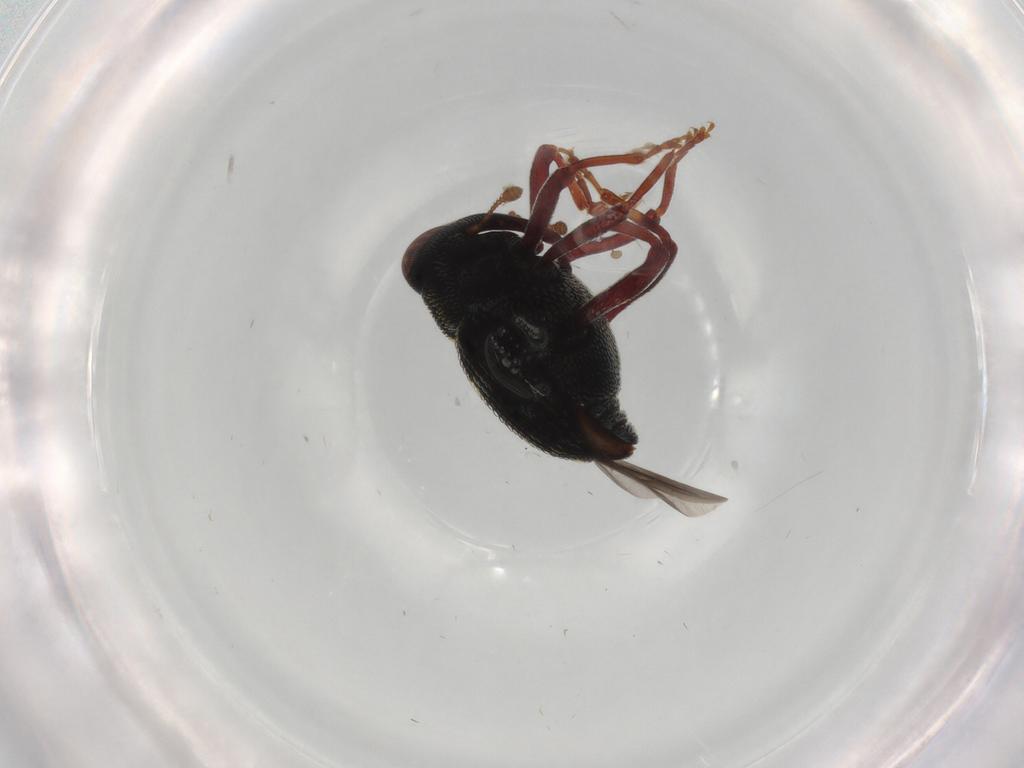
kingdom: Animalia
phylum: Arthropoda
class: Insecta
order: Coleoptera
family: Curculionidae
